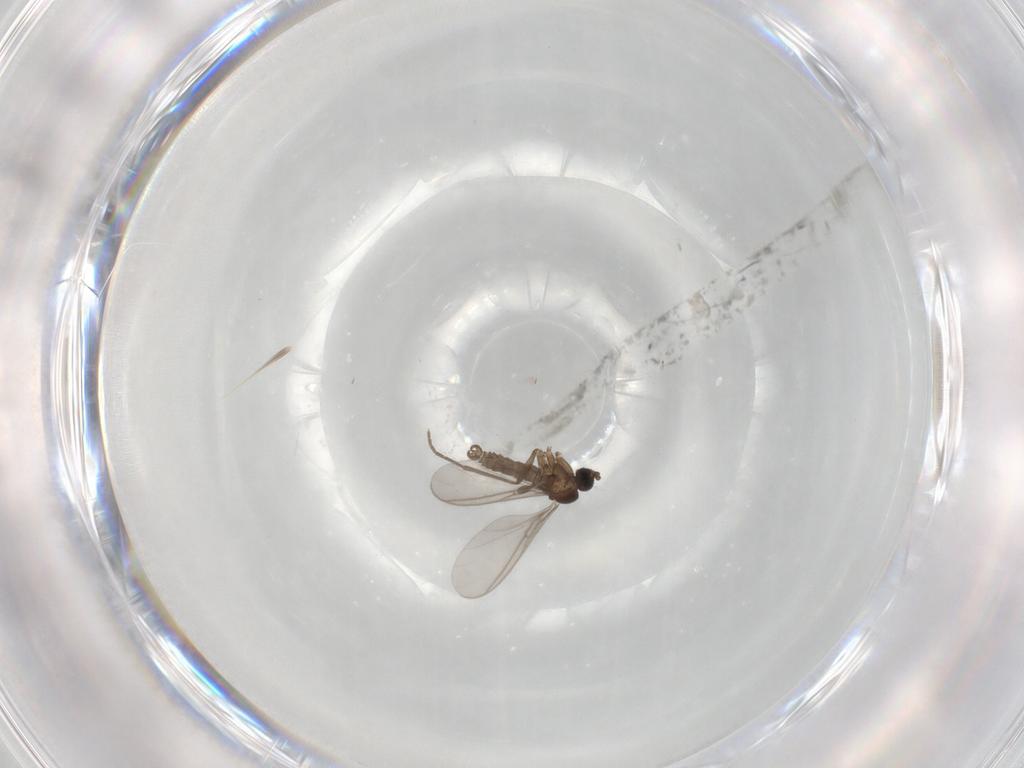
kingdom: Animalia
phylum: Arthropoda
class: Insecta
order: Diptera
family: Sciaridae
